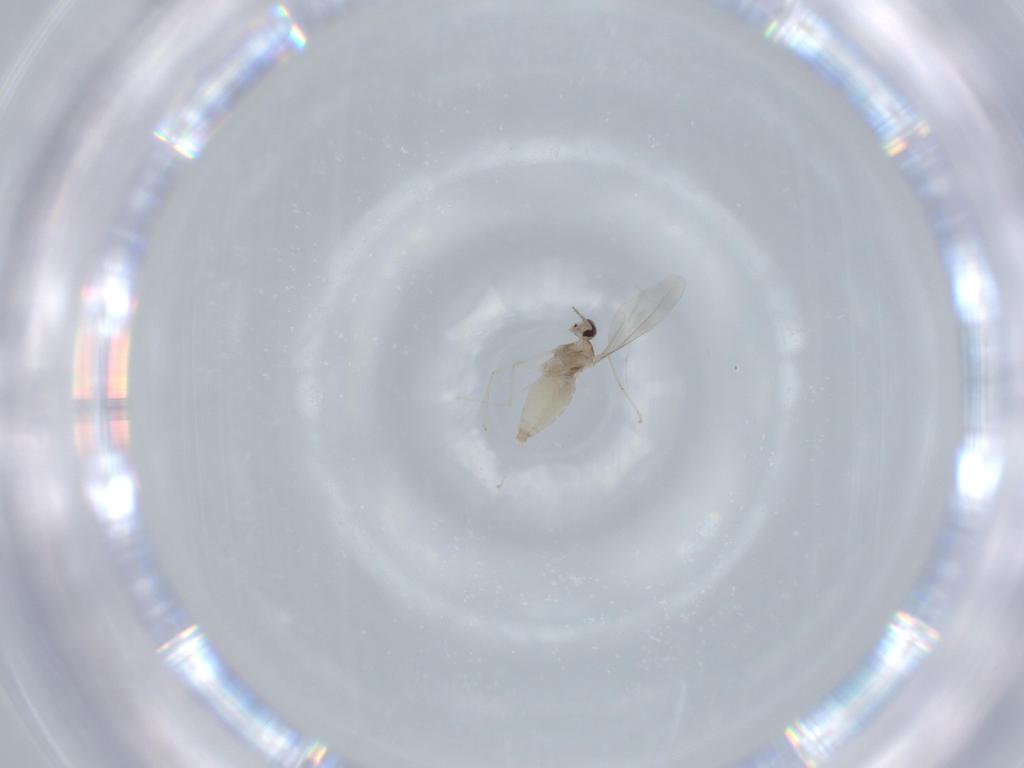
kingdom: Animalia
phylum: Arthropoda
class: Insecta
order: Diptera
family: Cecidomyiidae
